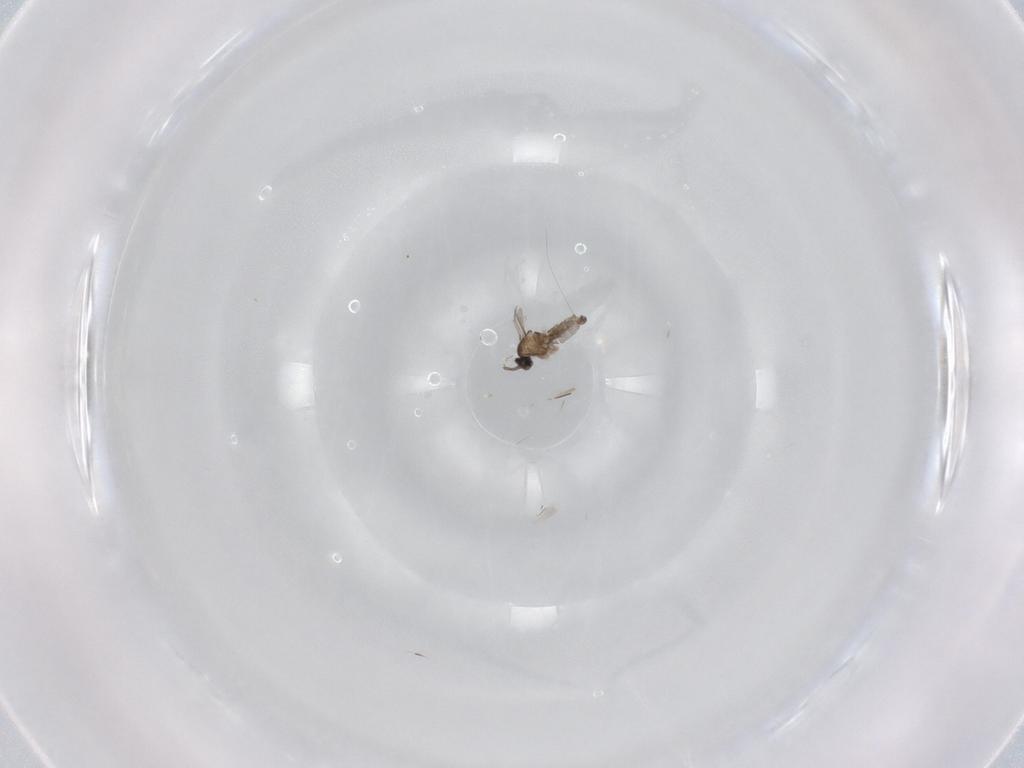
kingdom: Animalia
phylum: Arthropoda
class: Insecta
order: Diptera
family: Cecidomyiidae
